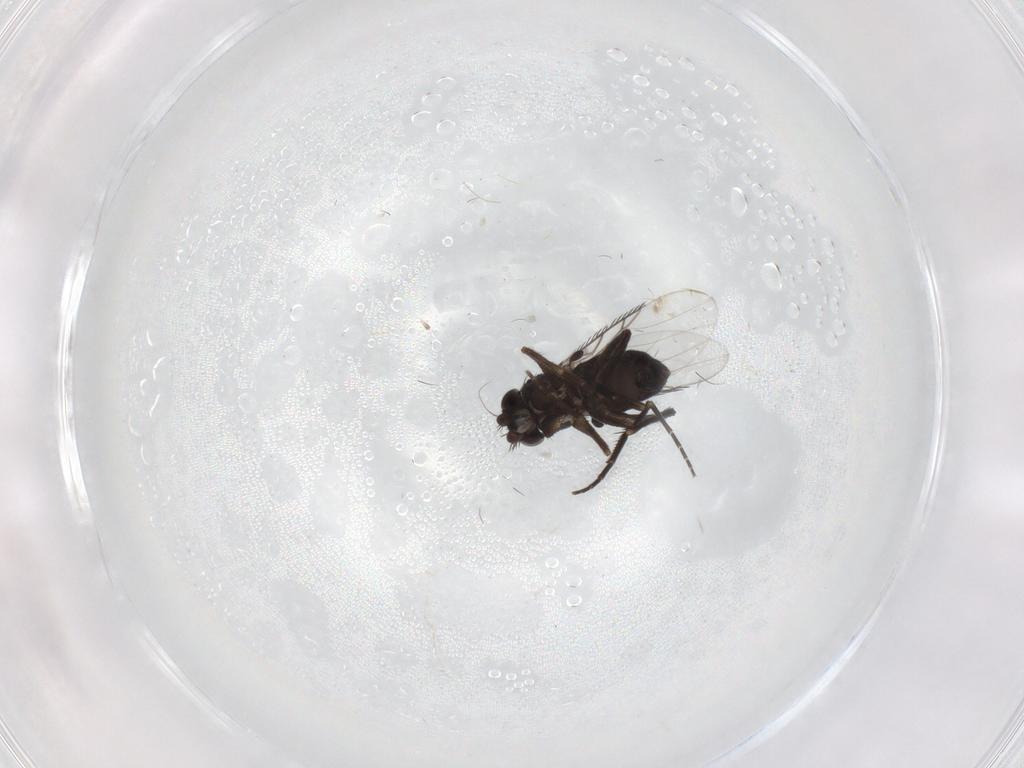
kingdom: Animalia
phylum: Arthropoda
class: Insecta
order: Diptera
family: Phoridae
